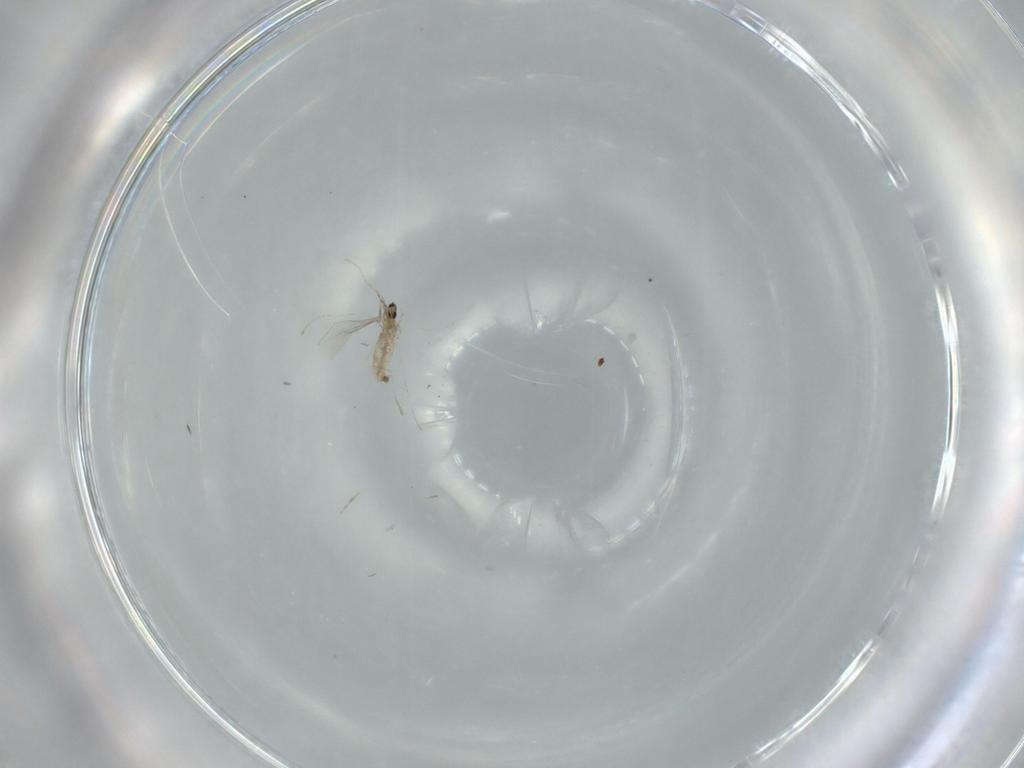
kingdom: Animalia
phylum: Arthropoda
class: Insecta
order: Diptera
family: Cecidomyiidae
